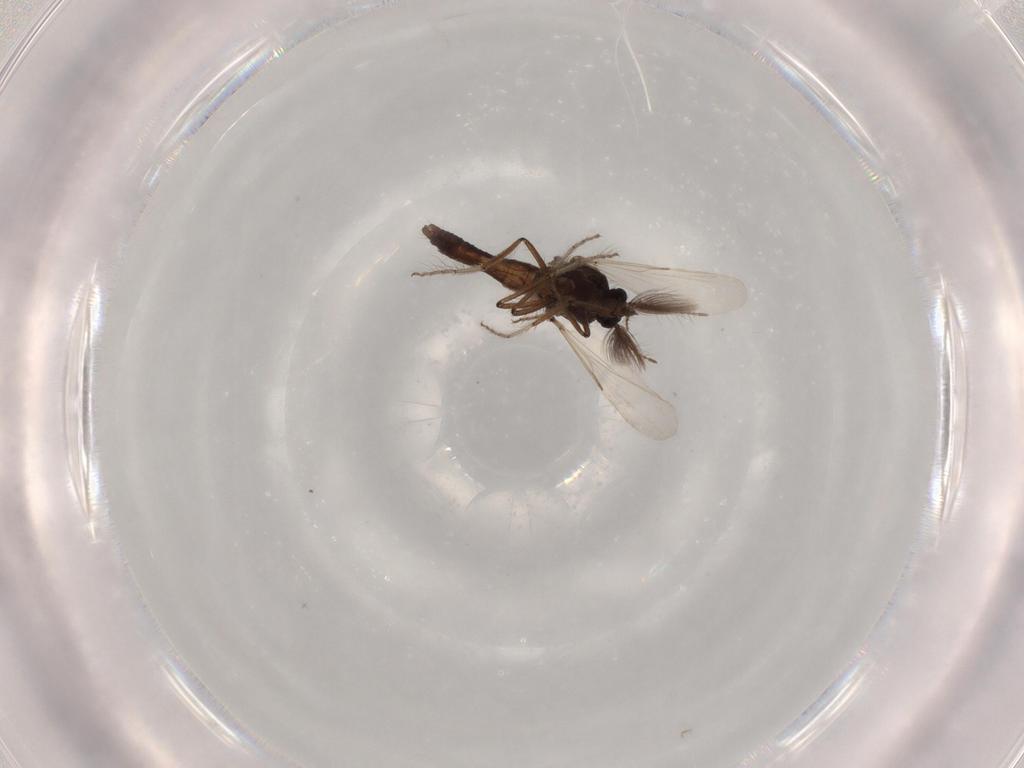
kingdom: Animalia
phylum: Arthropoda
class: Insecta
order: Diptera
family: Chironomidae
